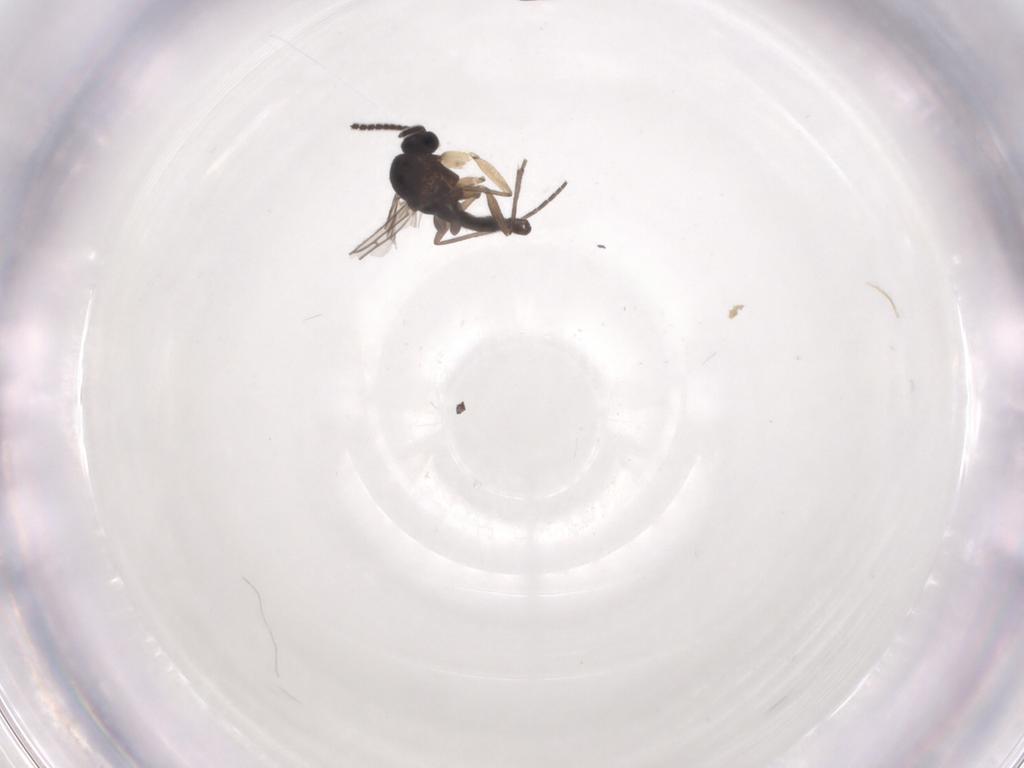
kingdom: Animalia
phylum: Arthropoda
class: Insecta
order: Diptera
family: Sciaridae
